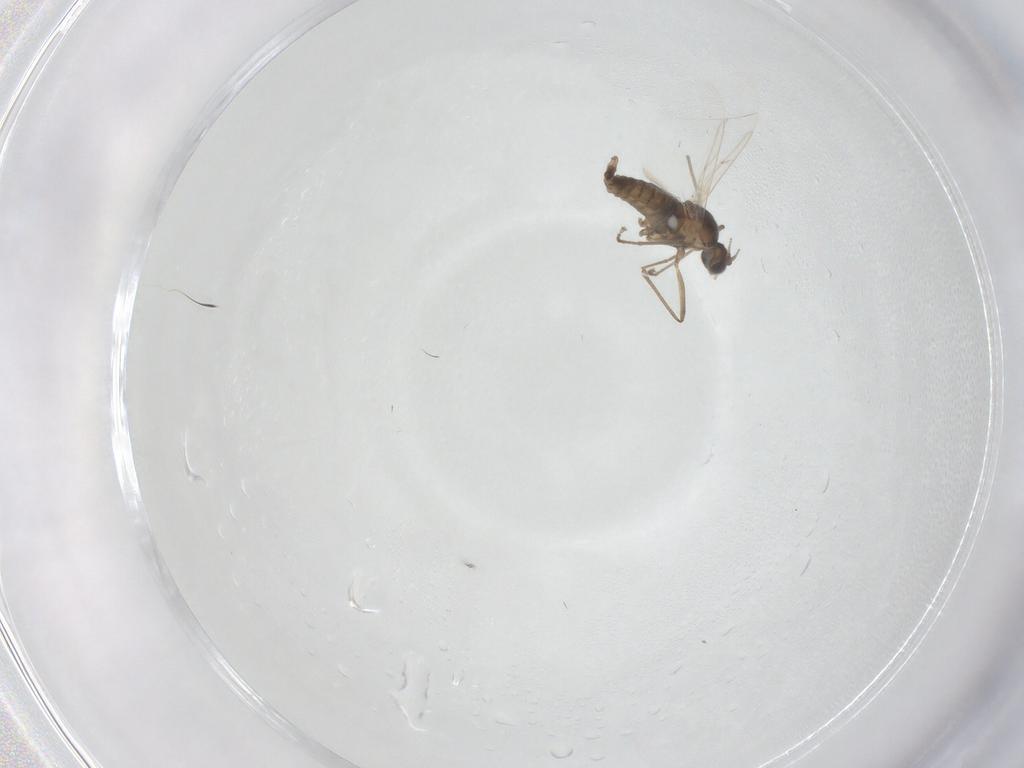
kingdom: Animalia
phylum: Arthropoda
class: Insecta
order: Diptera
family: Cecidomyiidae
